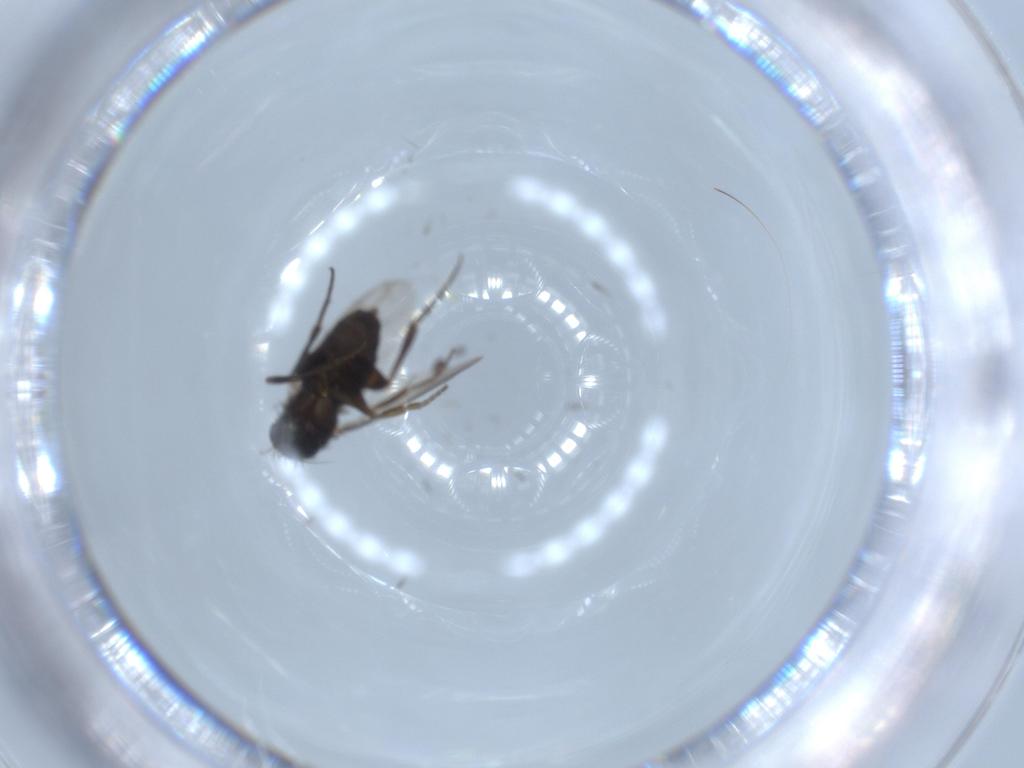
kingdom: Animalia
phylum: Arthropoda
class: Insecta
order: Diptera
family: Phoridae
